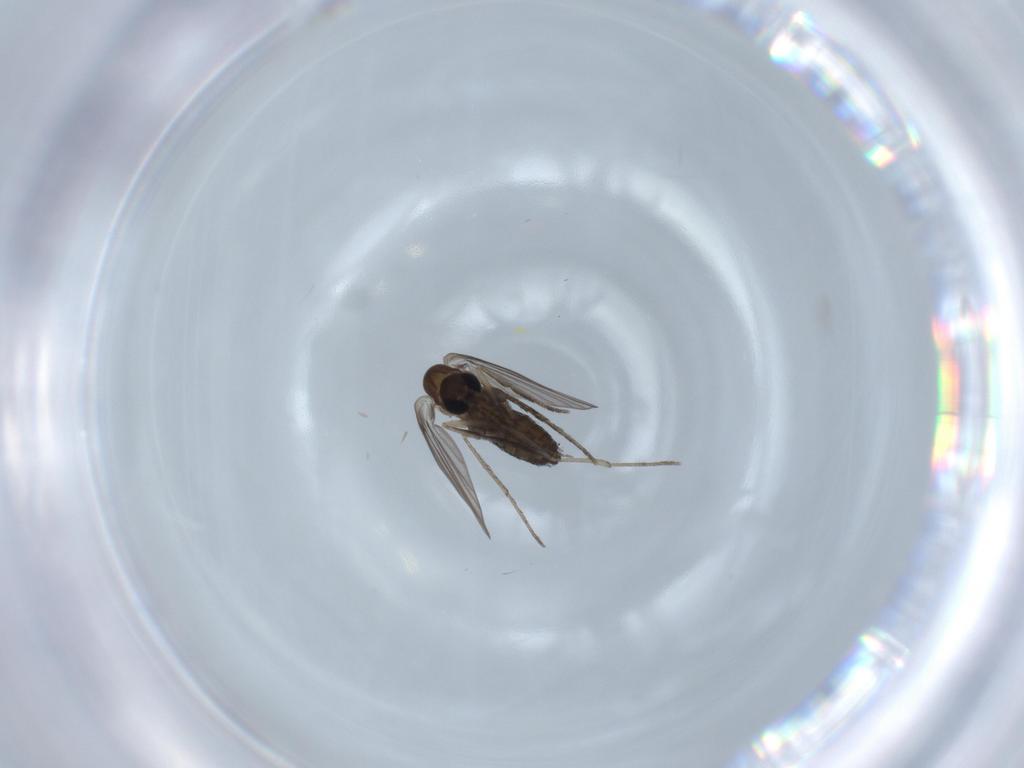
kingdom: Animalia
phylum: Arthropoda
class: Insecta
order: Diptera
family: Psychodidae
